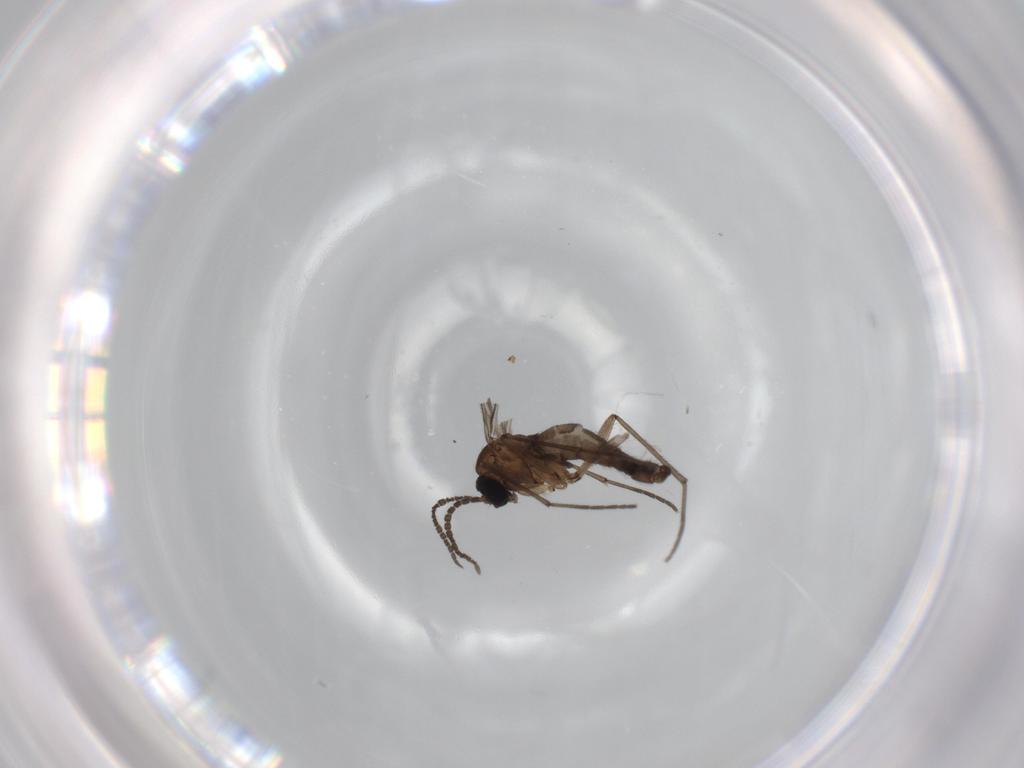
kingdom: Animalia
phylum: Arthropoda
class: Insecta
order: Diptera
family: Sciaridae
